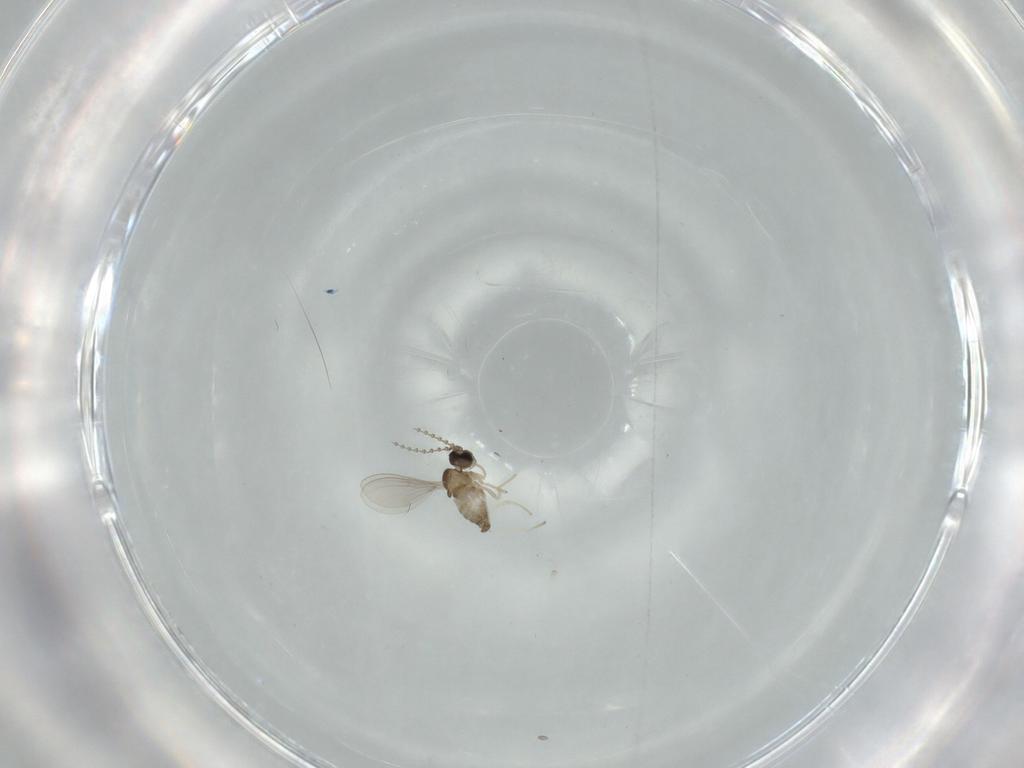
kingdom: Animalia
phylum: Arthropoda
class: Insecta
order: Diptera
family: Cecidomyiidae
